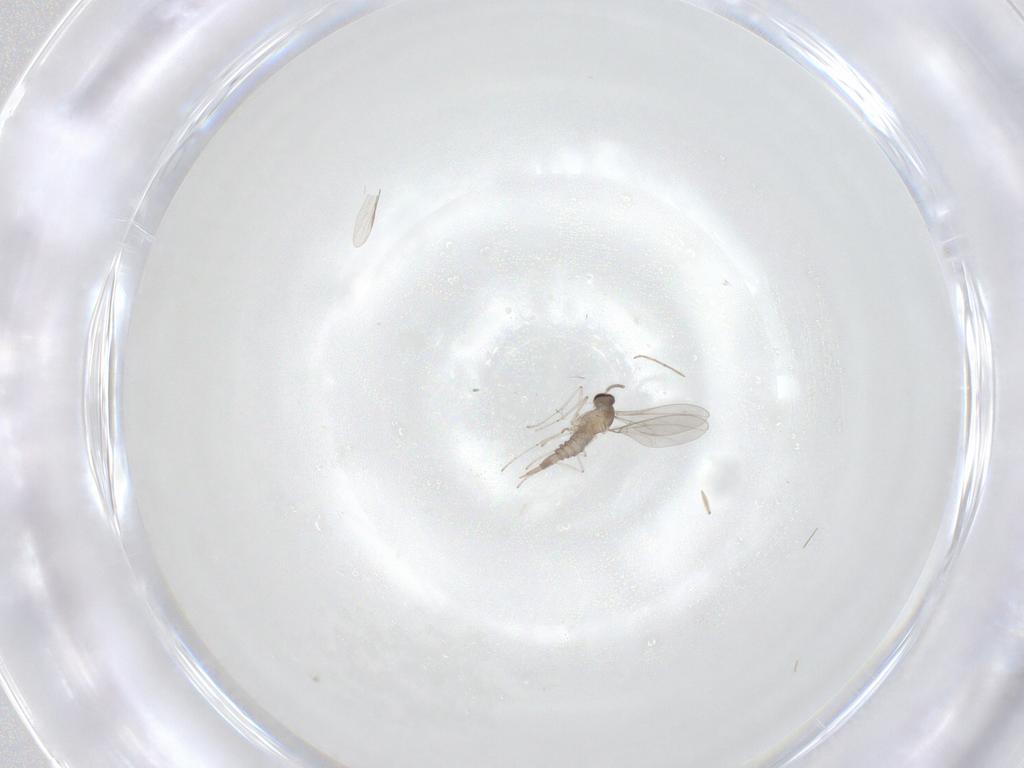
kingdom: Animalia
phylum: Arthropoda
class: Insecta
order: Diptera
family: Psychodidae
